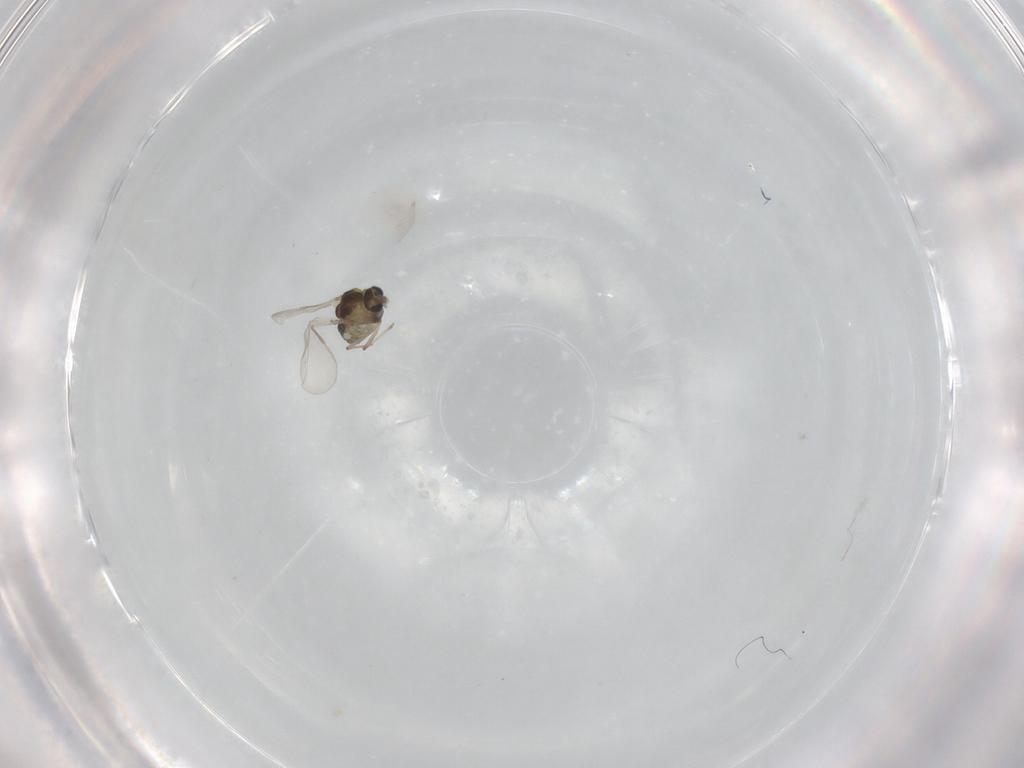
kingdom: Animalia
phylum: Arthropoda
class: Insecta
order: Diptera
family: Chironomidae
